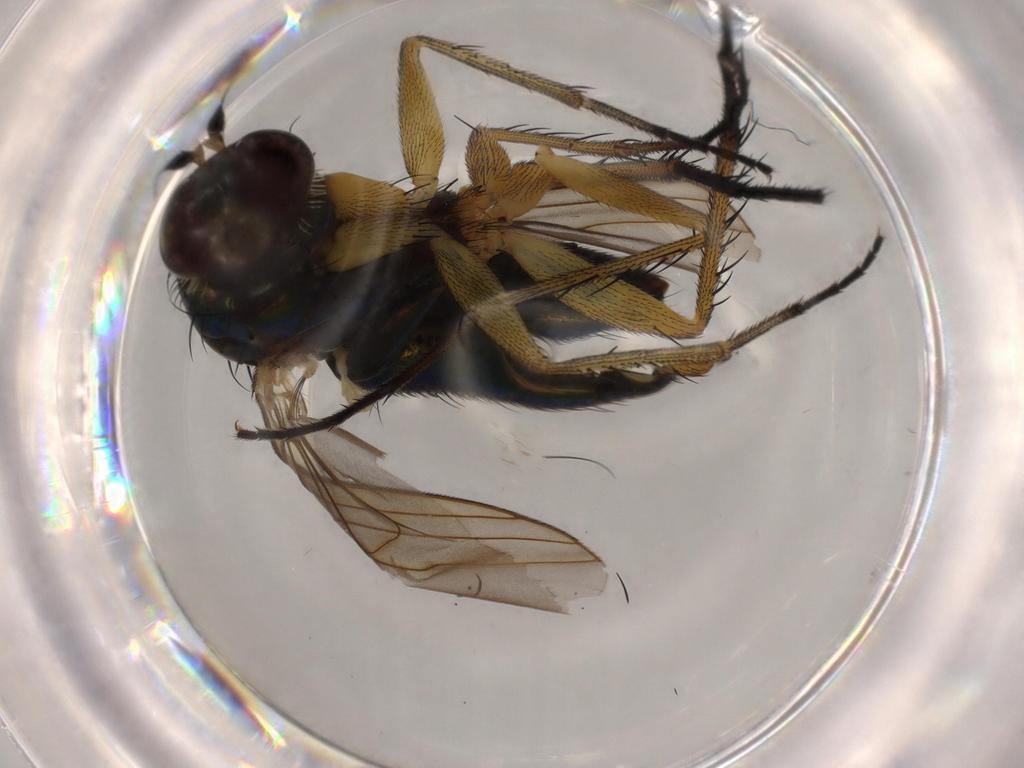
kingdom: Animalia
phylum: Arthropoda
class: Insecta
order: Diptera
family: Dolichopodidae
